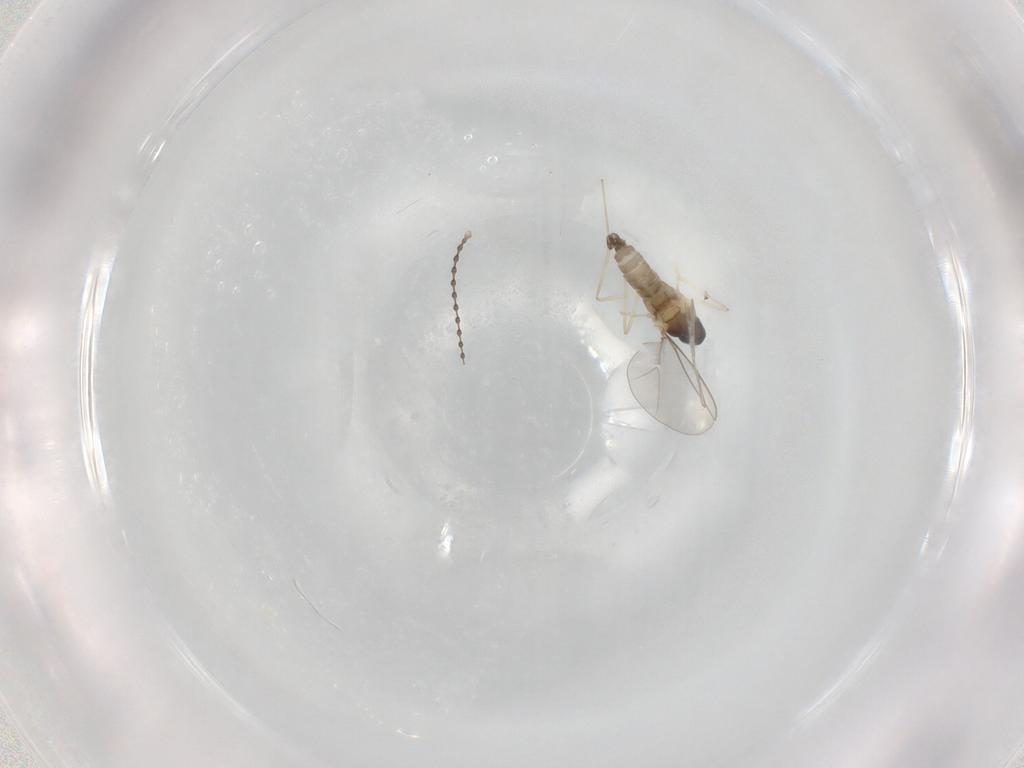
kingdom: Animalia
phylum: Arthropoda
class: Insecta
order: Diptera
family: Cecidomyiidae
